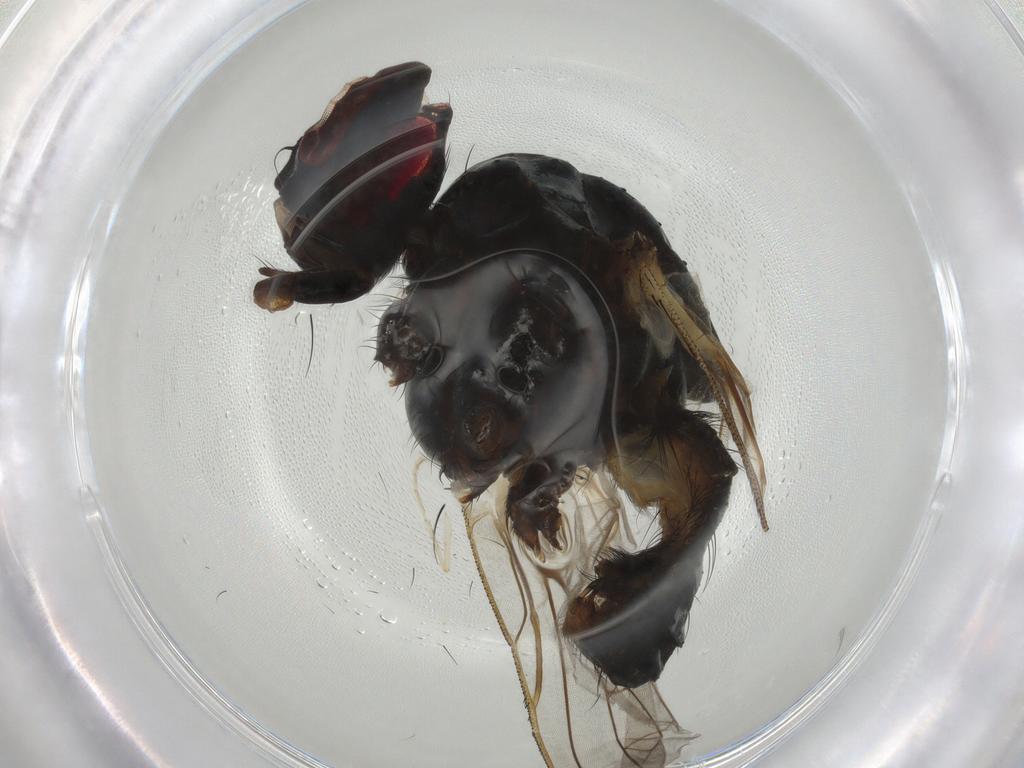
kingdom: Animalia
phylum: Arthropoda
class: Insecta
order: Diptera
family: Anthomyiidae
